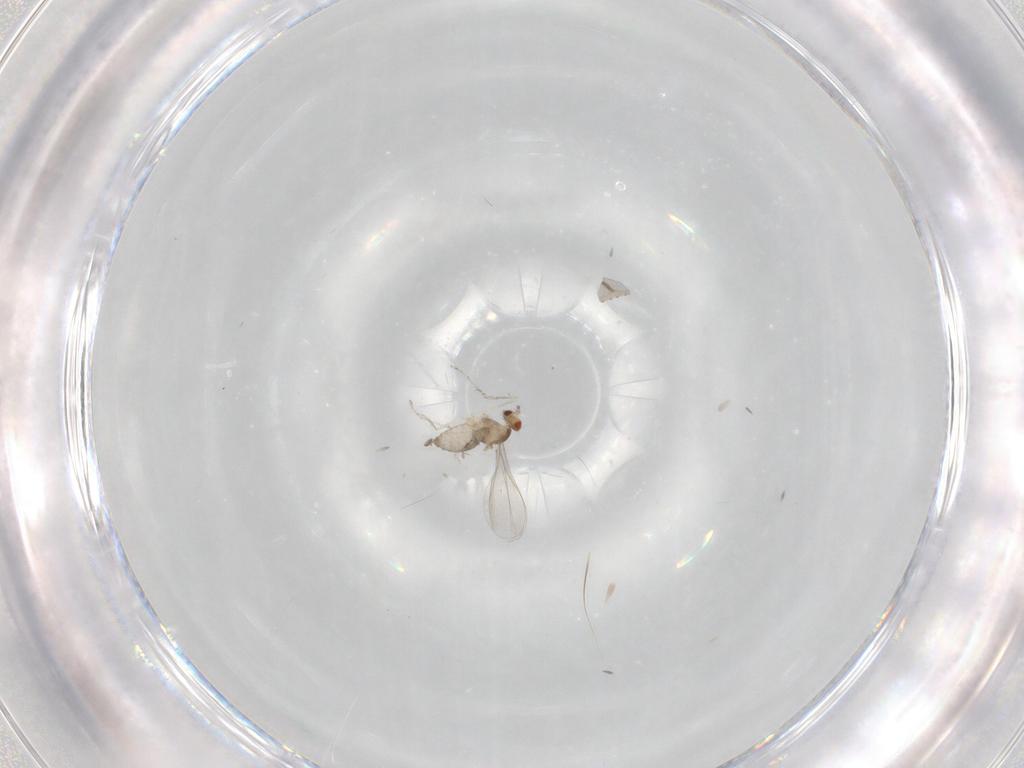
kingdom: Animalia
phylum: Arthropoda
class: Insecta
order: Diptera
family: Cecidomyiidae
